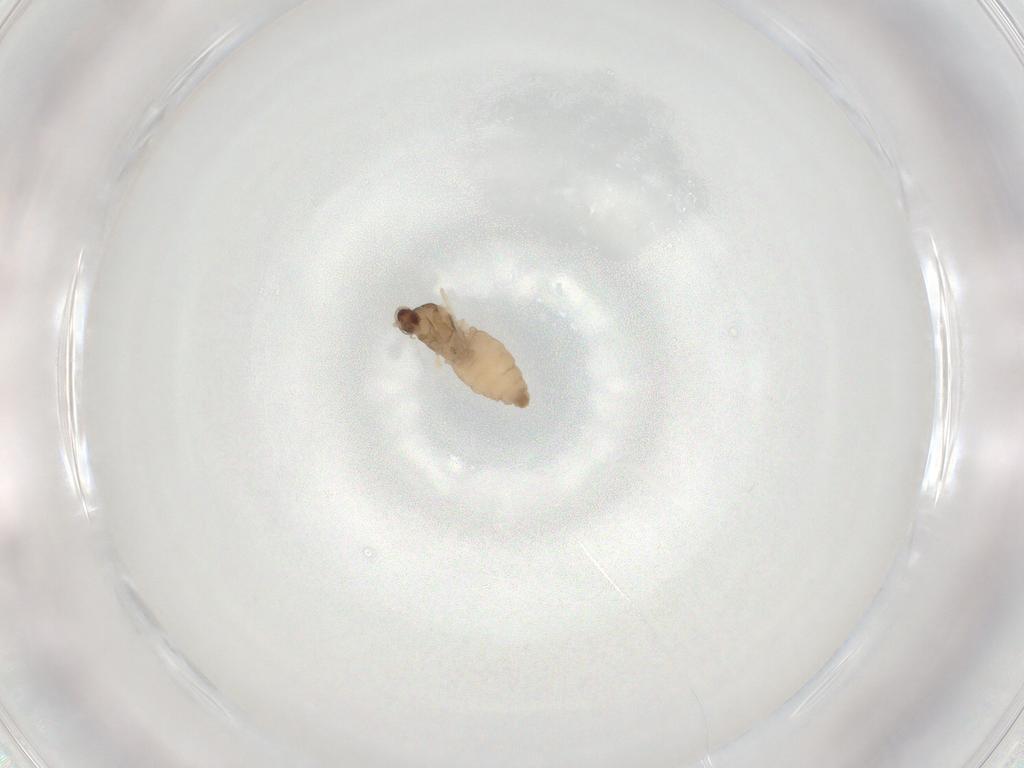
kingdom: Animalia
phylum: Arthropoda
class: Insecta
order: Diptera
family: Cecidomyiidae
